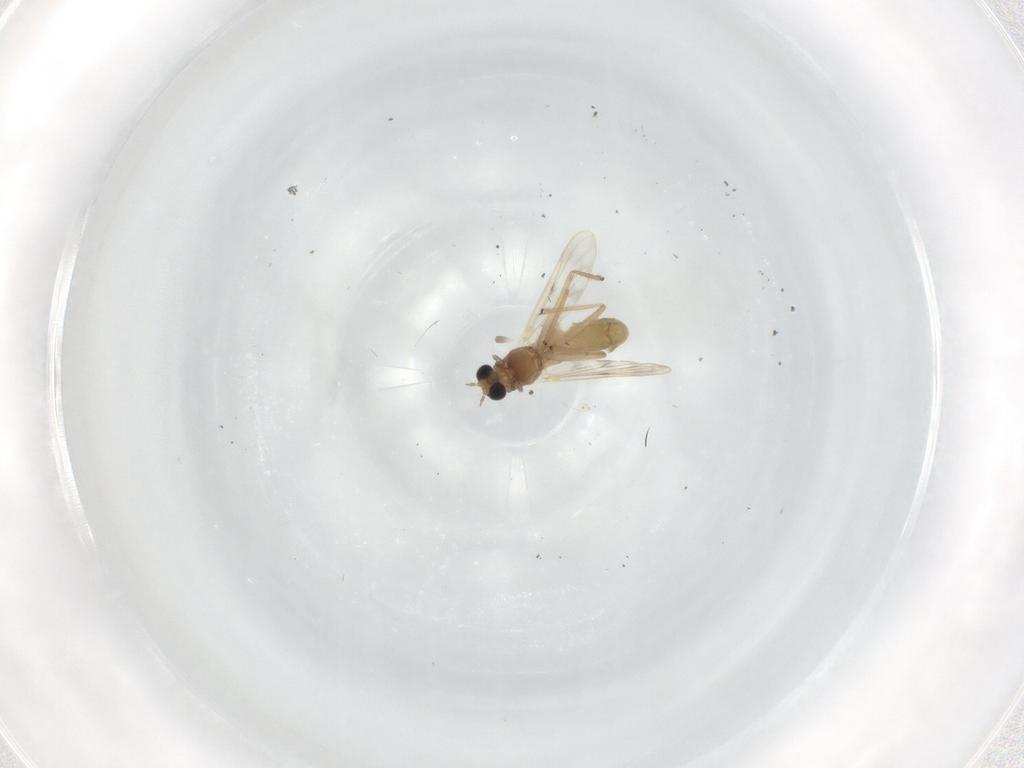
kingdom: Animalia
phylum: Arthropoda
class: Insecta
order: Diptera
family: Chironomidae
